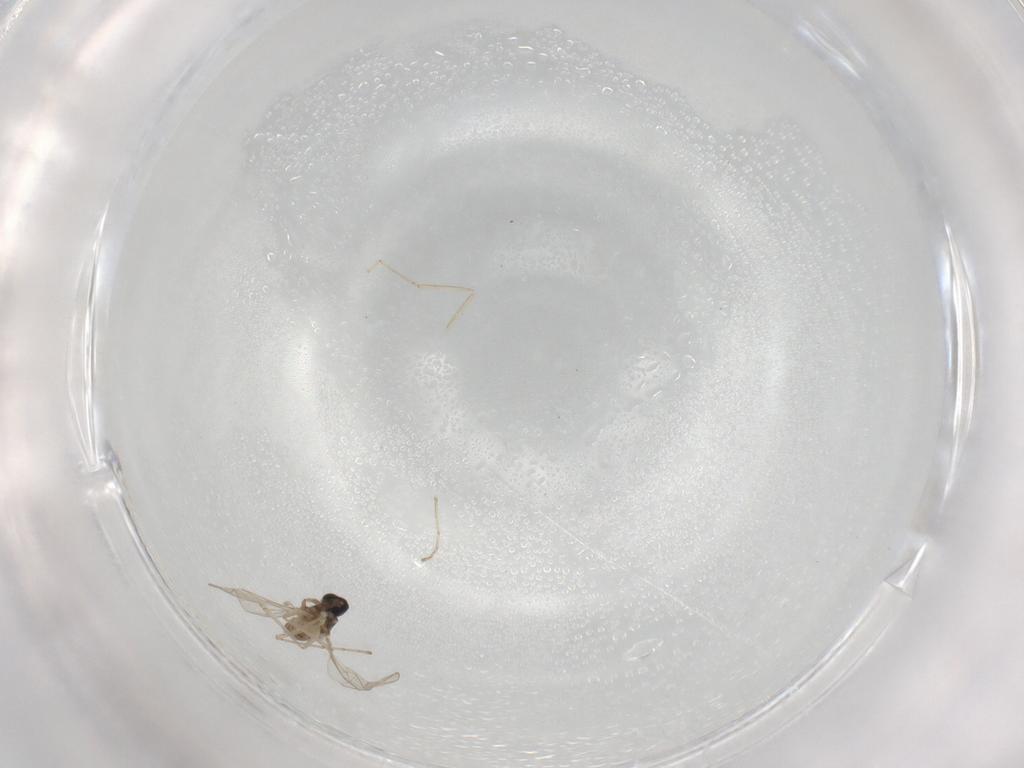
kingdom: Animalia
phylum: Arthropoda
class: Insecta
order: Diptera
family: Cecidomyiidae
